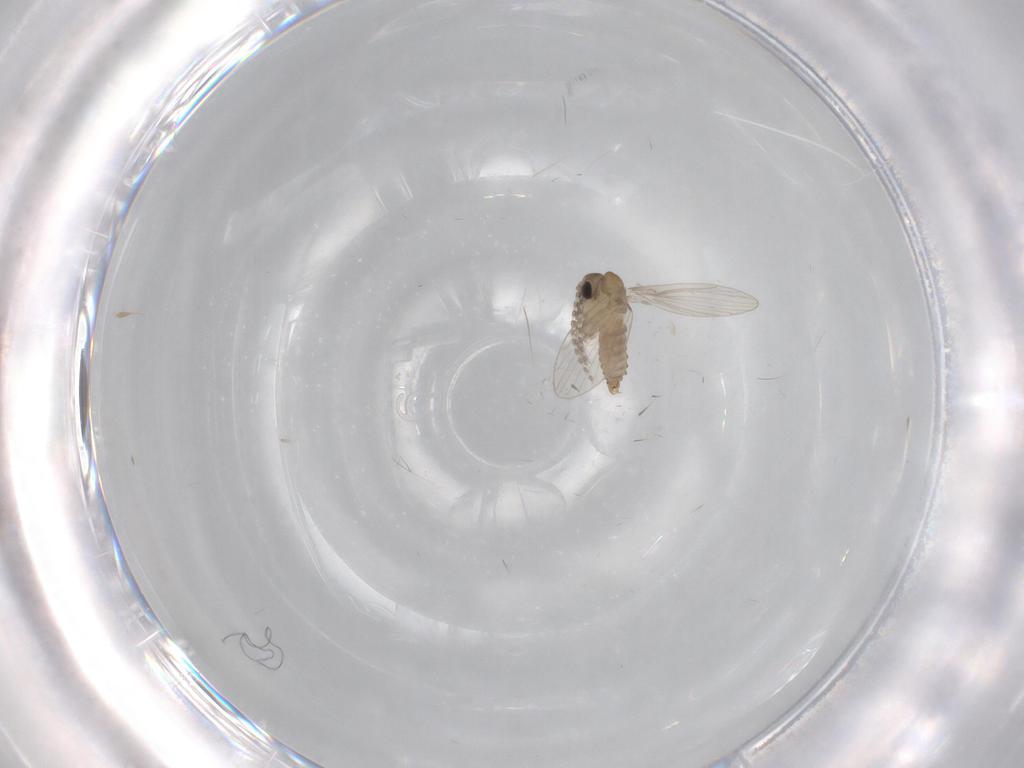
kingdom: Animalia
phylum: Arthropoda
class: Insecta
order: Diptera
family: Psychodidae
